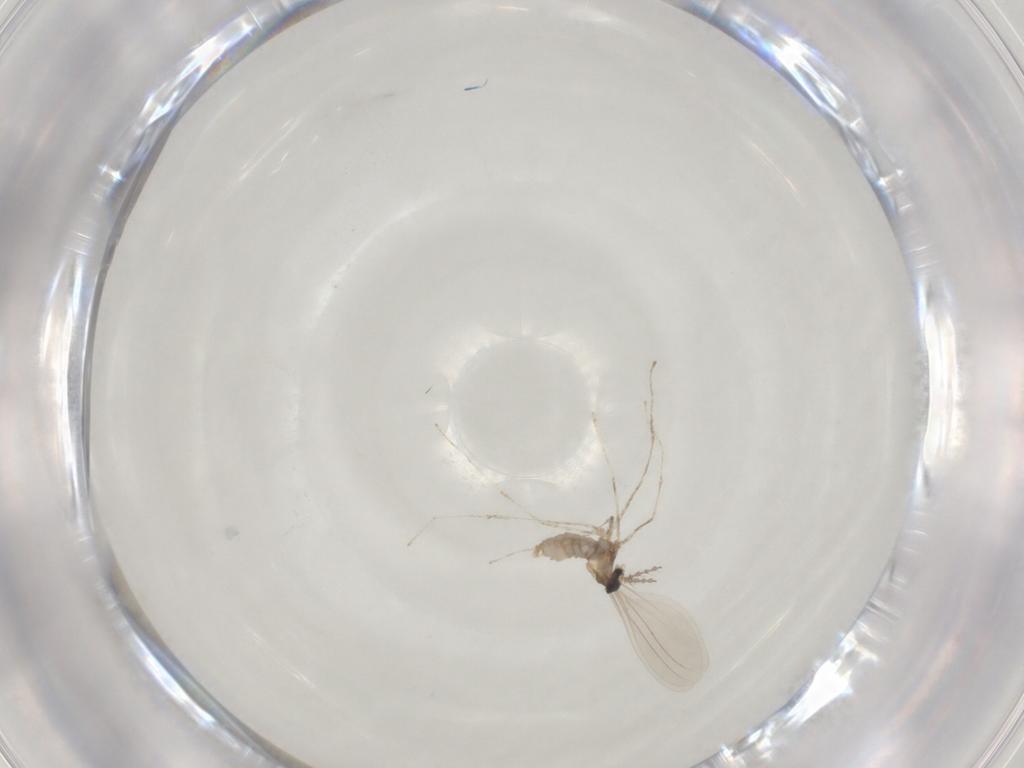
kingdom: Animalia
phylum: Arthropoda
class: Insecta
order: Diptera
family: Cecidomyiidae
